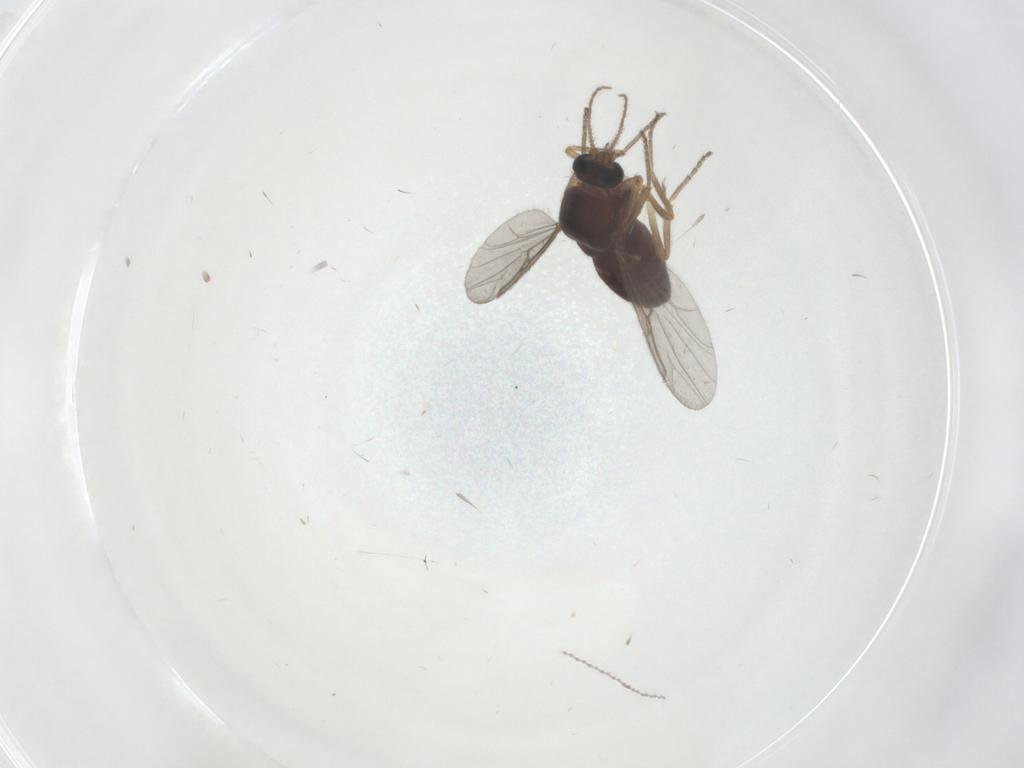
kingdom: Animalia
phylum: Arthropoda
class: Insecta
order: Diptera
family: Ceratopogonidae
